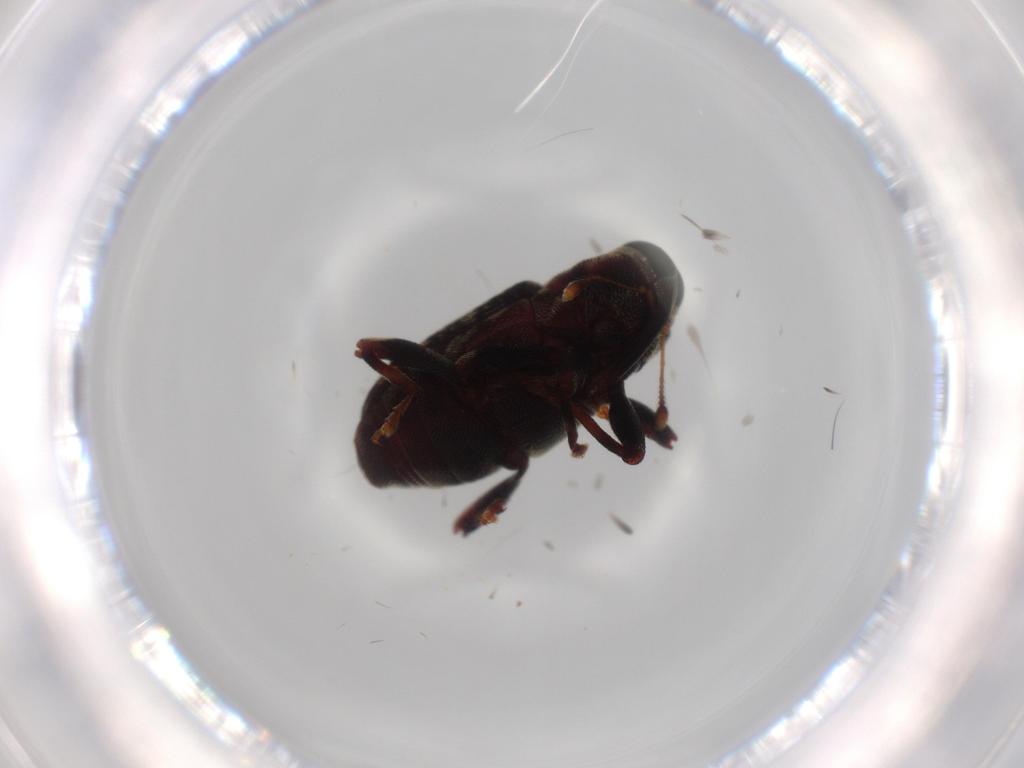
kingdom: Animalia
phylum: Arthropoda
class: Insecta
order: Coleoptera
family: Curculionidae
